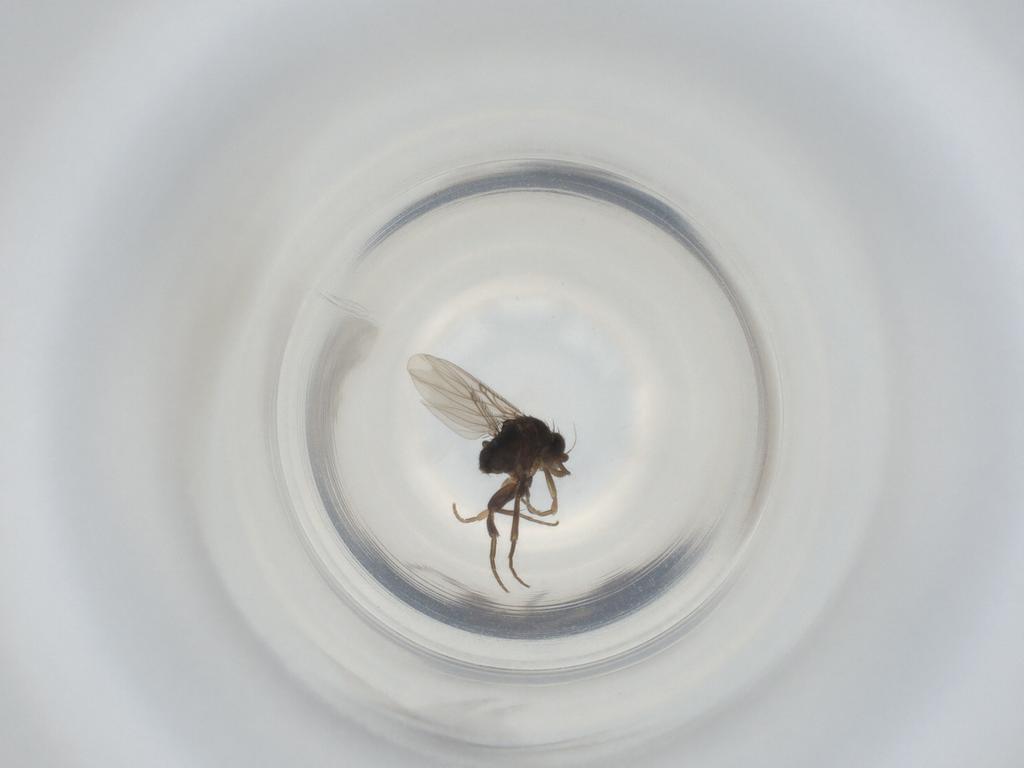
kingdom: Animalia
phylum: Arthropoda
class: Insecta
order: Diptera
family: Phoridae
